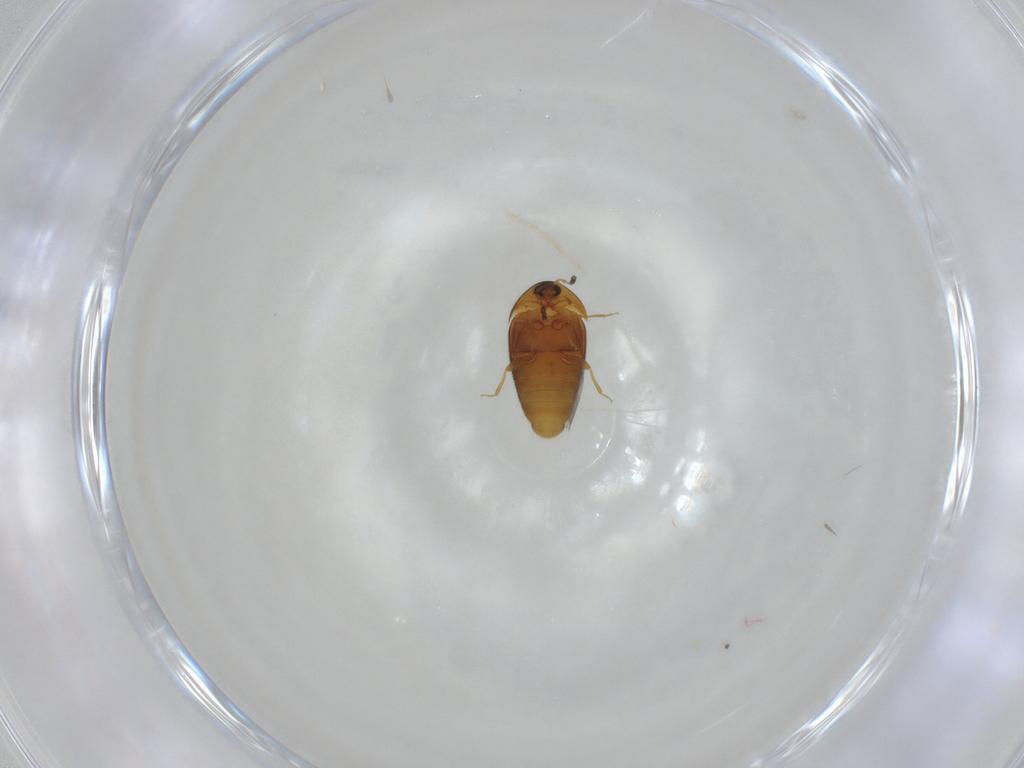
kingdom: Animalia
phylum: Arthropoda
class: Insecta
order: Coleoptera
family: Corylophidae
